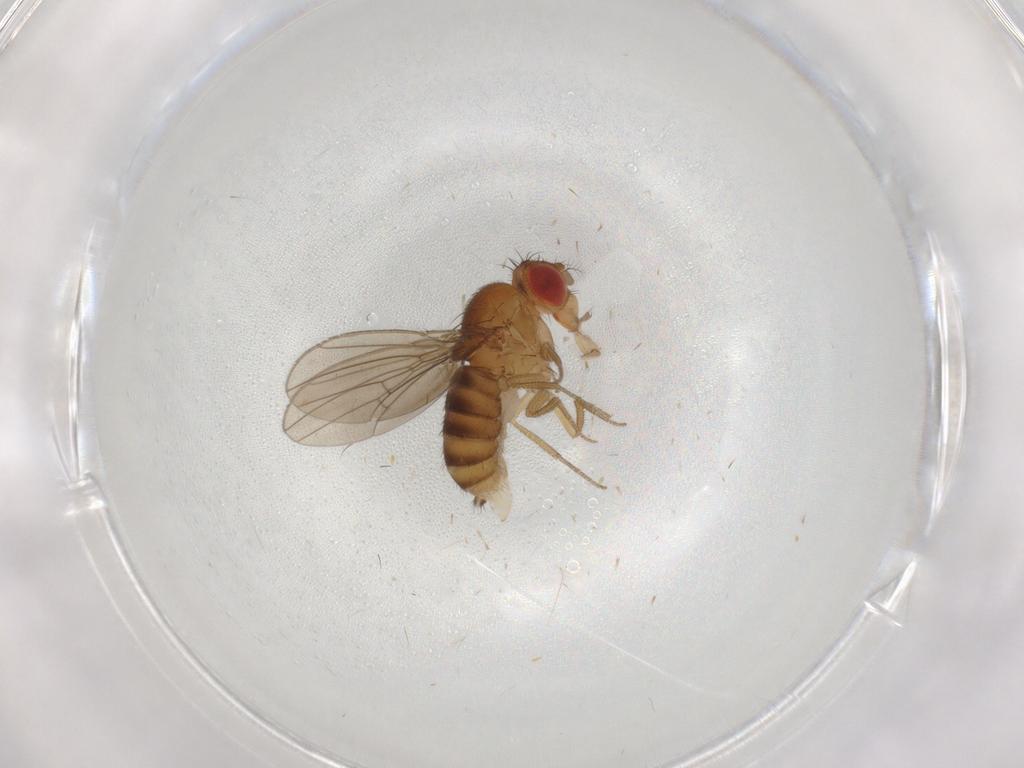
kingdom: Animalia
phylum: Arthropoda
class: Insecta
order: Diptera
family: Drosophilidae
